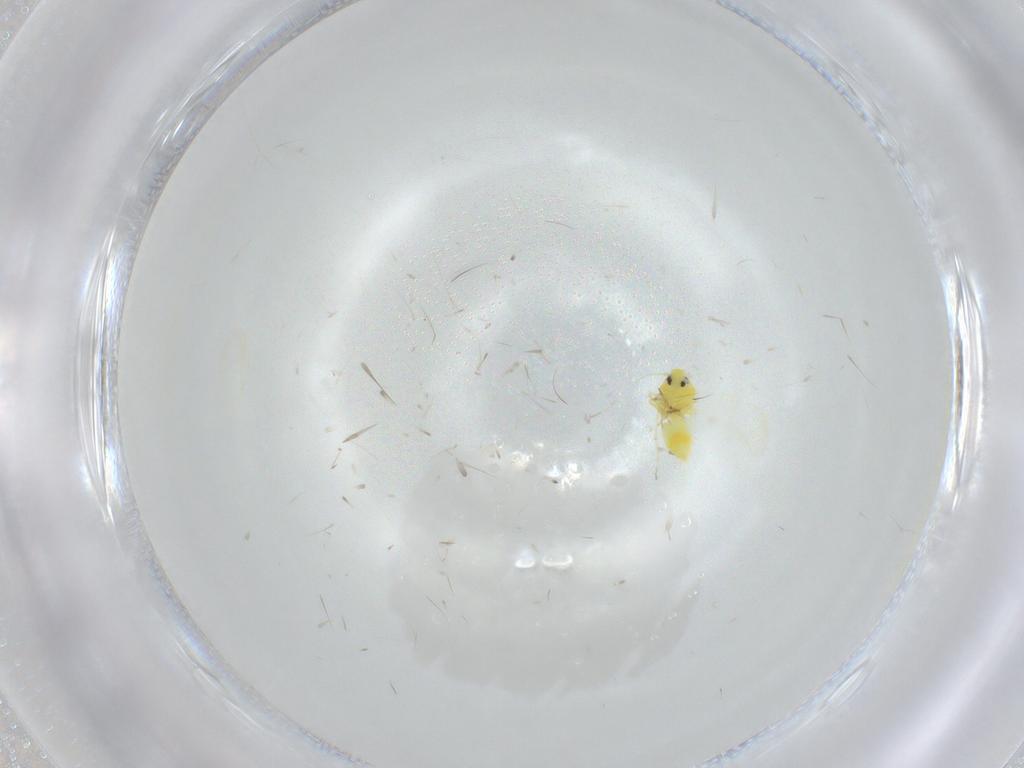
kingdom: Animalia
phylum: Arthropoda
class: Insecta
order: Hemiptera
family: Aleyrodidae
